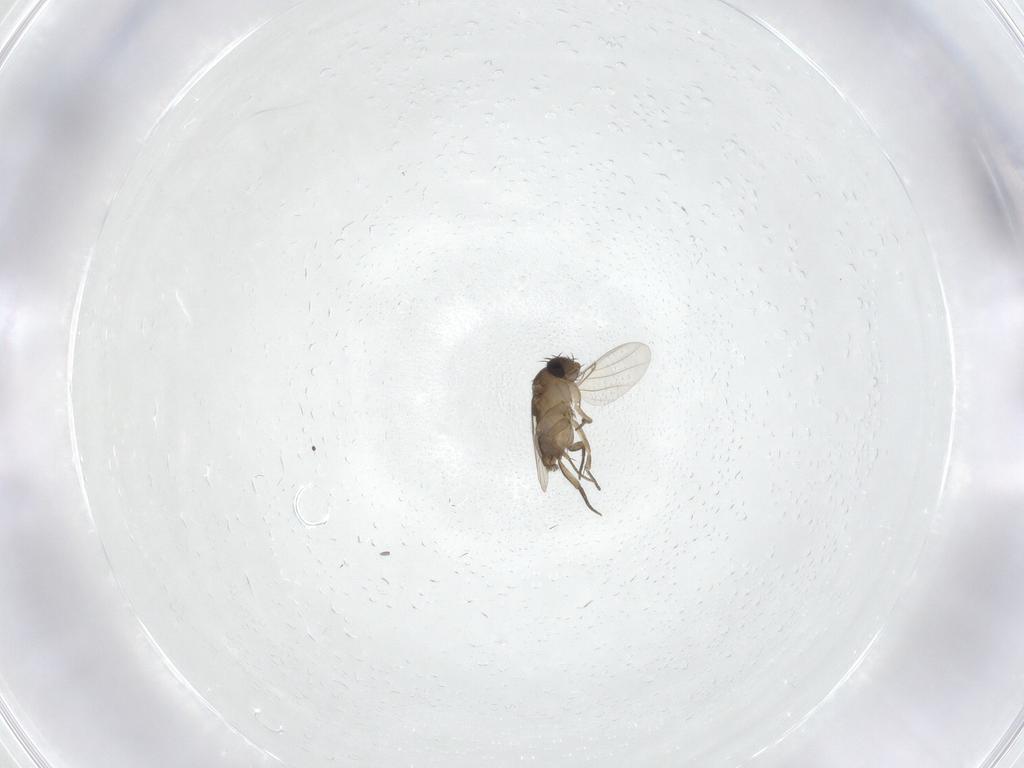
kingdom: Animalia
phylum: Arthropoda
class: Insecta
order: Diptera
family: Phoridae
